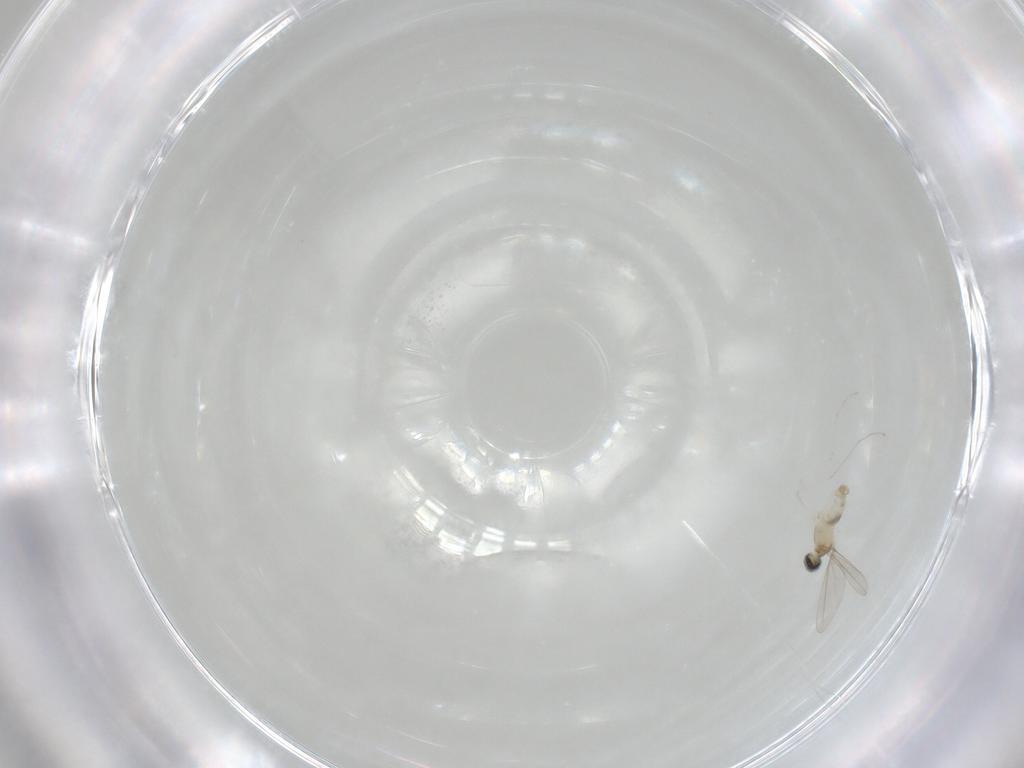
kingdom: Animalia
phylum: Arthropoda
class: Insecta
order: Diptera
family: Cecidomyiidae
